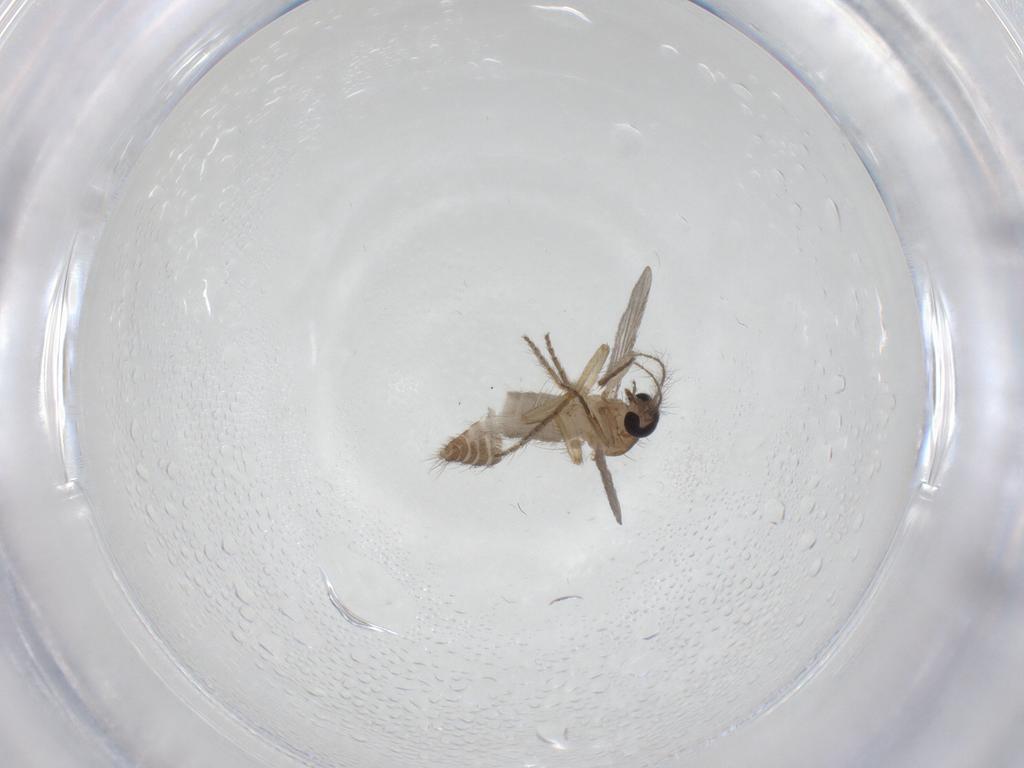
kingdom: Animalia
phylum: Arthropoda
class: Insecta
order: Diptera
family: Ceratopogonidae
